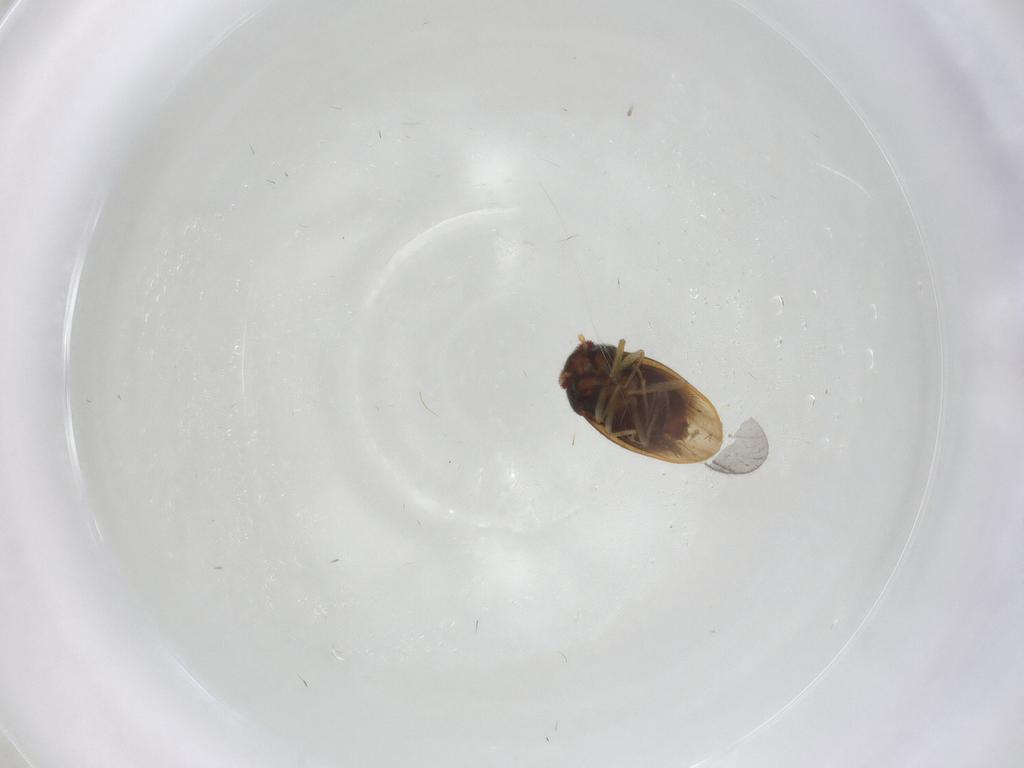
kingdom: Animalia
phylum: Arthropoda
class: Insecta
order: Hemiptera
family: Schizopteridae
